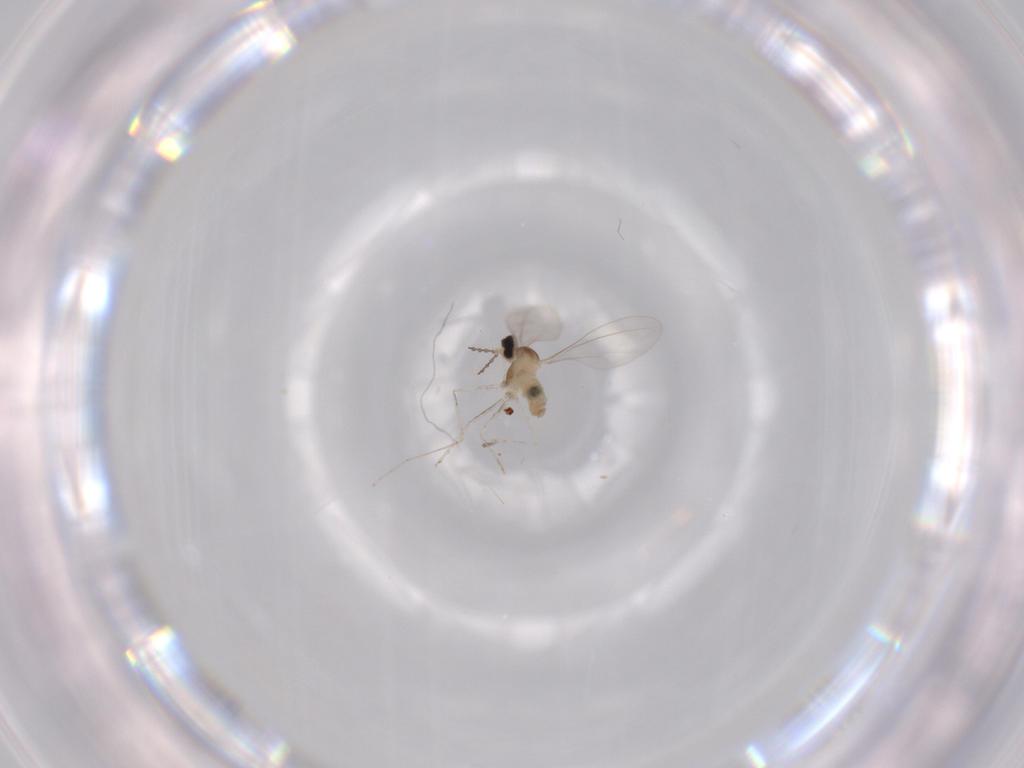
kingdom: Animalia
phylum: Arthropoda
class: Insecta
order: Diptera
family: Cecidomyiidae
